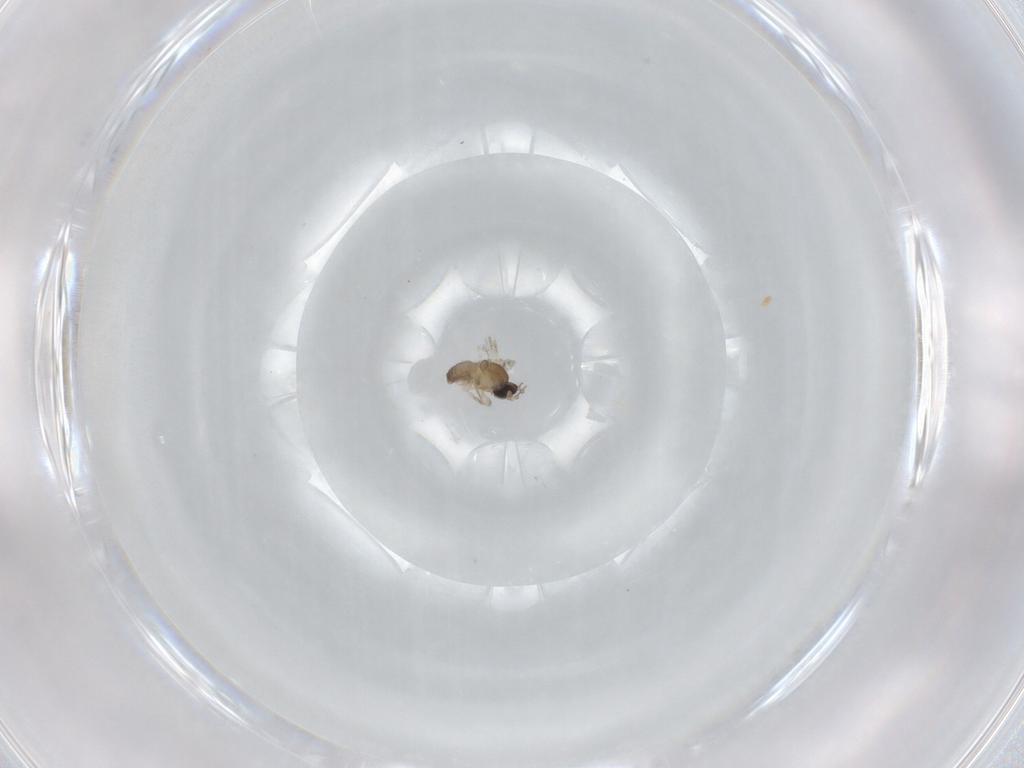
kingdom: Animalia
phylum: Arthropoda
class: Insecta
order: Diptera
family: Cecidomyiidae
